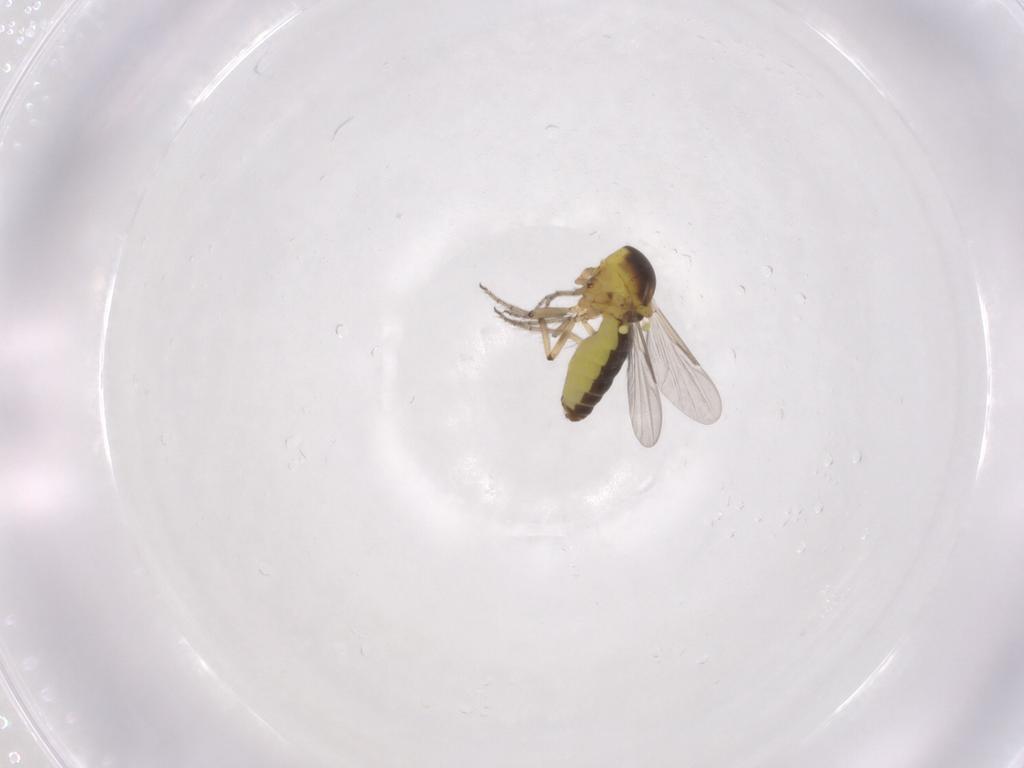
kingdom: Animalia
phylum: Arthropoda
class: Insecta
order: Diptera
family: Ceratopogonidae
